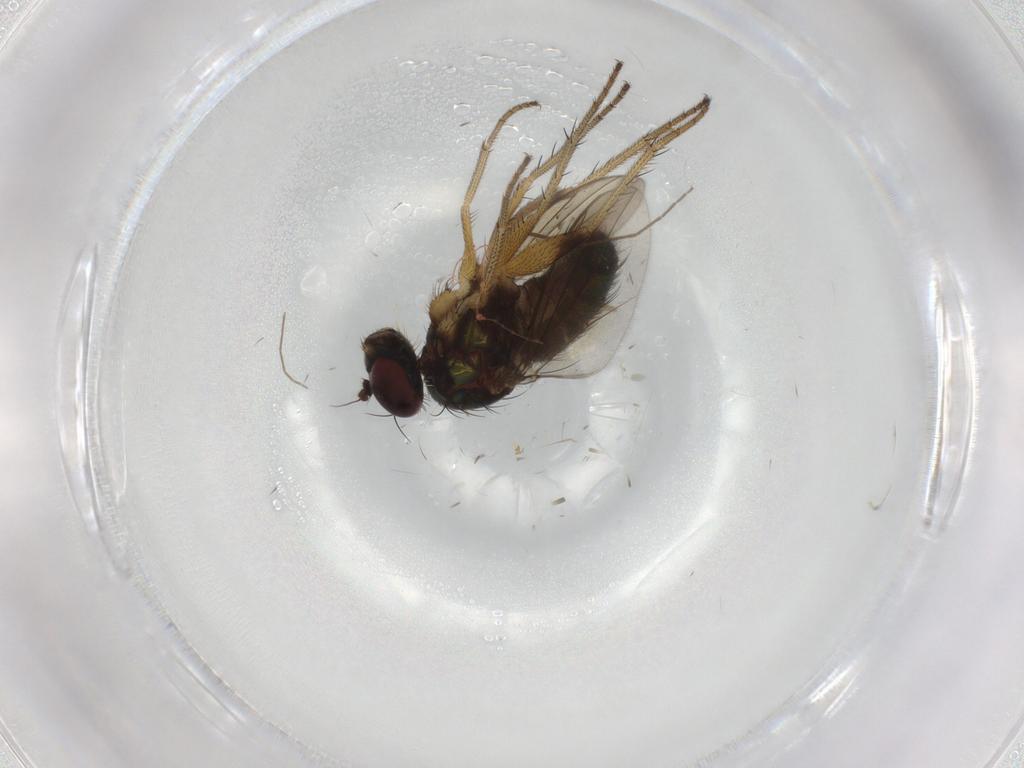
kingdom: Animalia
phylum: Arthropoda
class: Insecta
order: Diptera
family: Dolichopodidae
